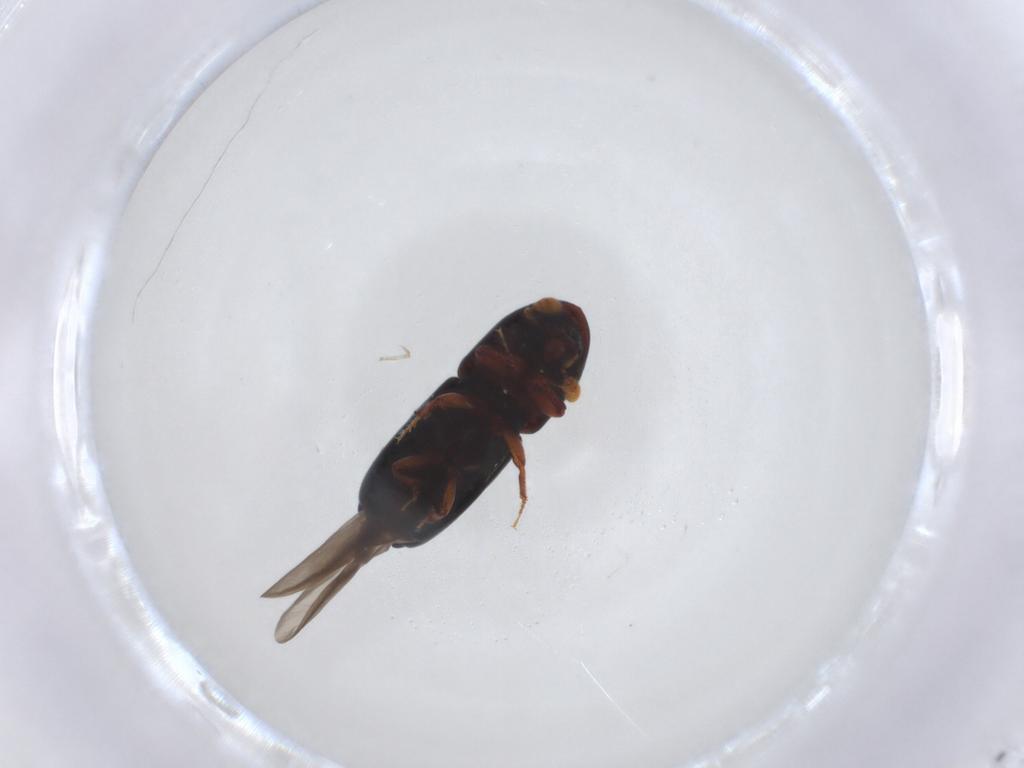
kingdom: Animalia
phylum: Arthropoda
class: Insecta
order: Coleoptera
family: Curculionidae
